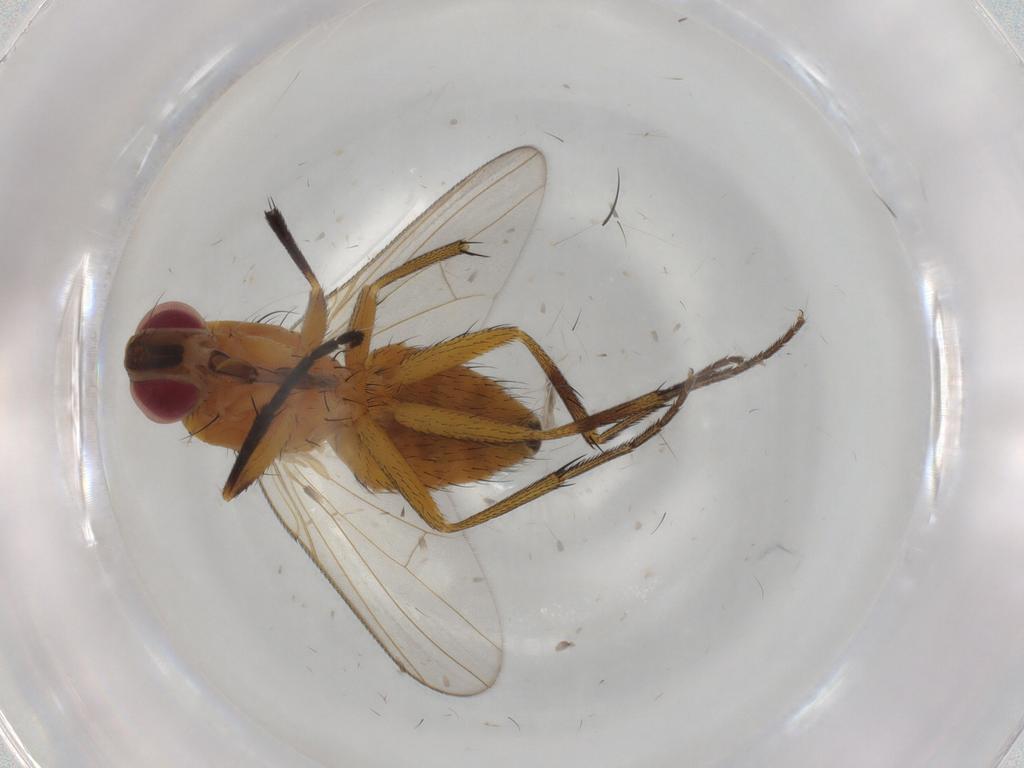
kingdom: Animalia
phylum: Arthropoda
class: Insecta
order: Diptera
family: Muscidae
